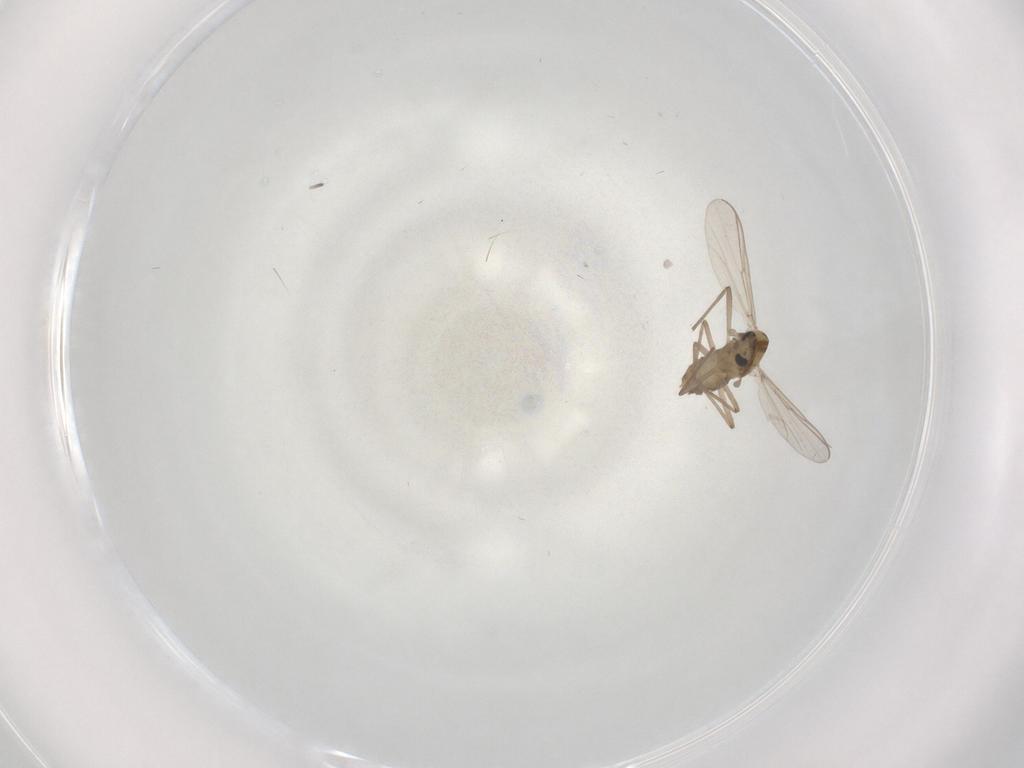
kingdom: Animalia
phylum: Arthropoda
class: Insecta
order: Diptera
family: Chironomidae
